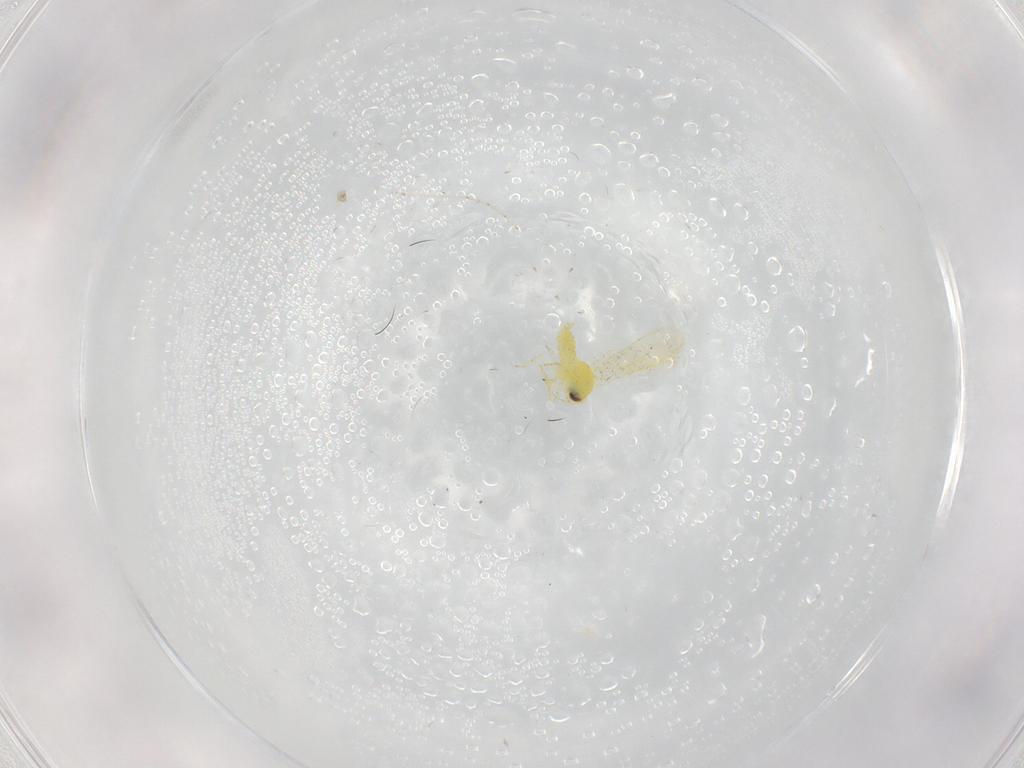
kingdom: Animalia
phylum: Arthropoda
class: Insecta
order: Hemiptera
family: Aleyrodidae
